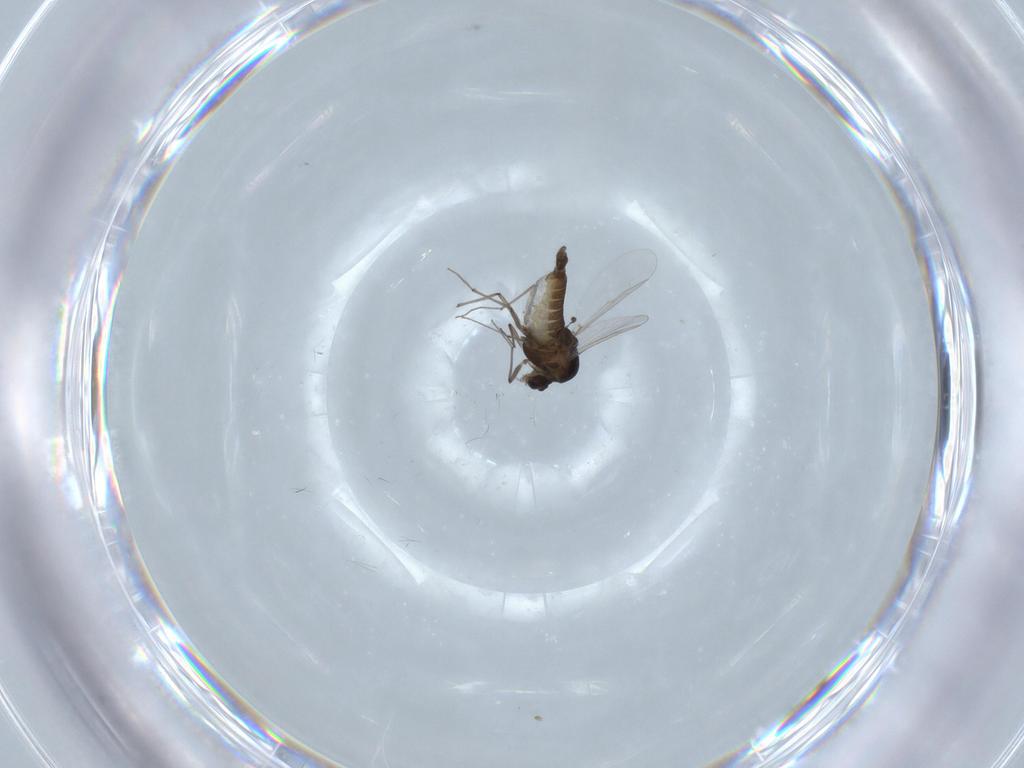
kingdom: Animalia
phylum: Arthropoda
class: Insecta
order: Diptera
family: Chironomidae
